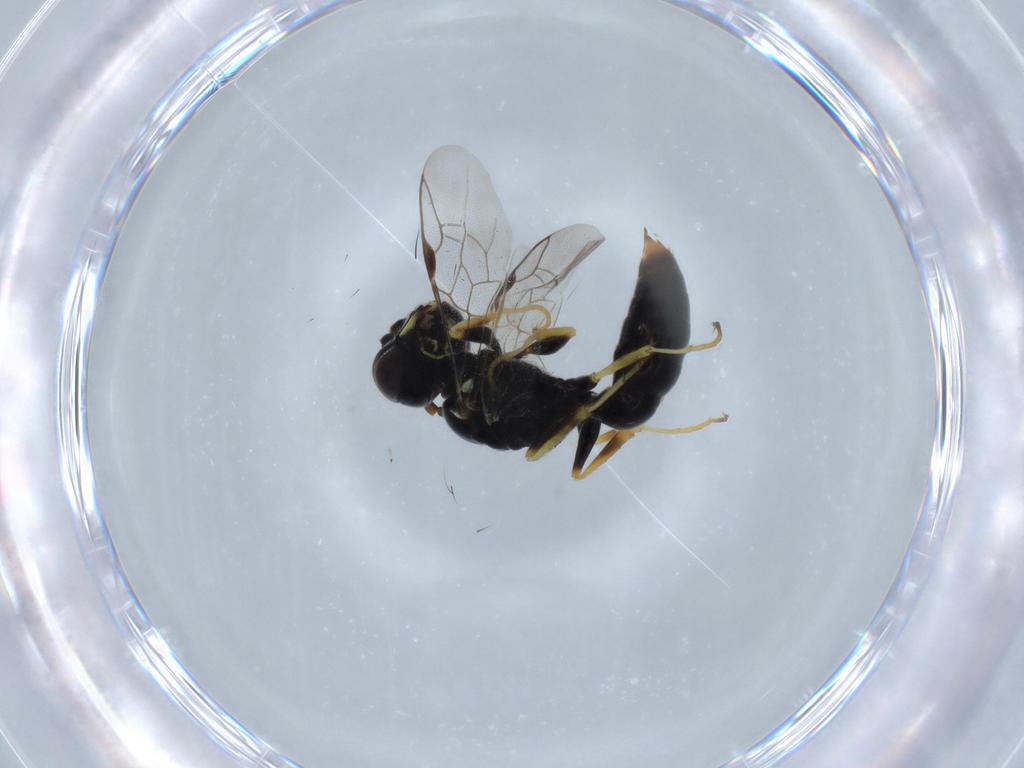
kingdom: Animalia
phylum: Arthropoda
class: Insecta
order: Hymenoptera
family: Crabronidae
